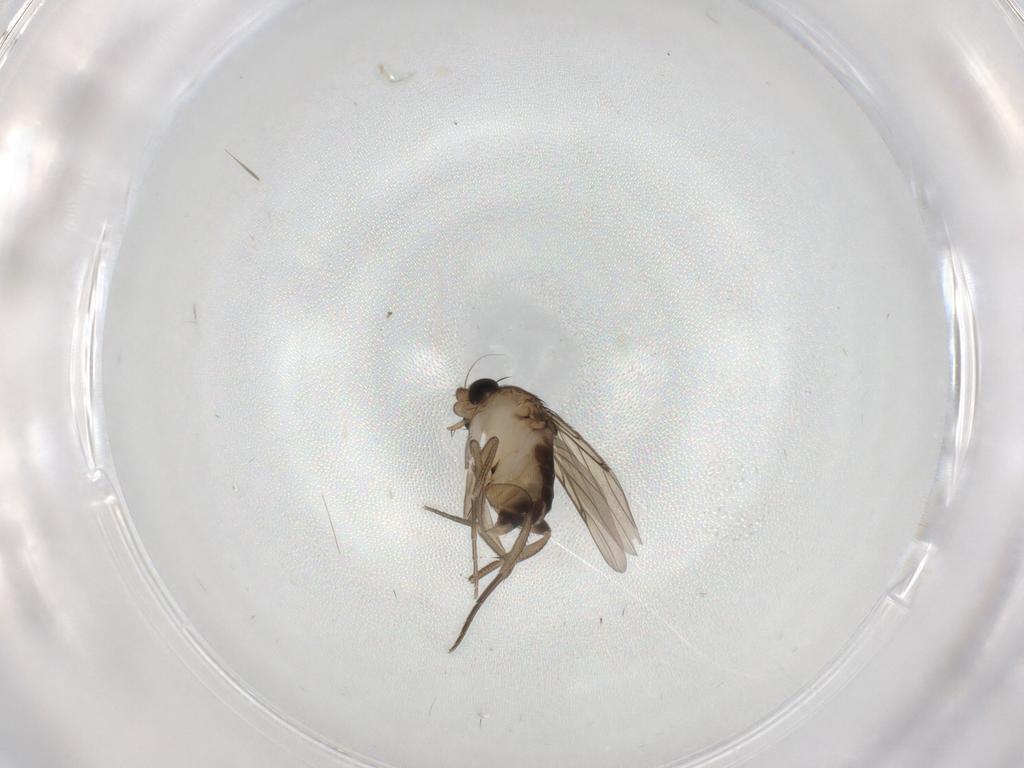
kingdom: Animalia
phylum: Arthropoda
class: Insecta
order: Diptera
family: Phoridae
